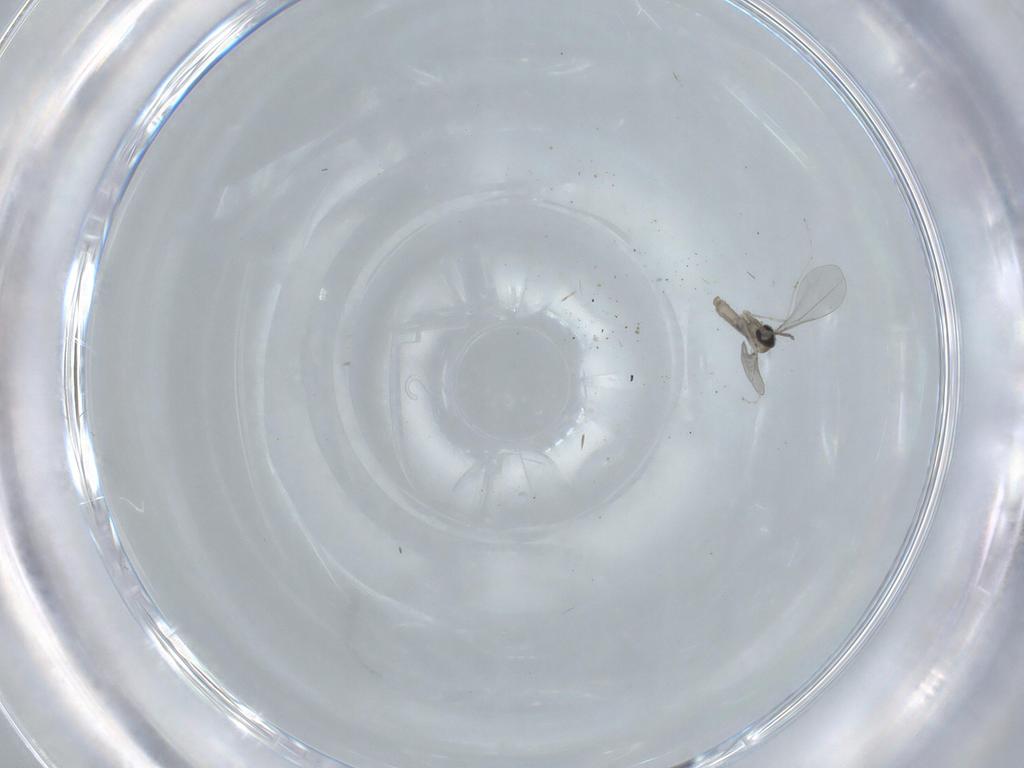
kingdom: Animalia
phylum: Arthropoda
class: Insecta
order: Diptera
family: Cecidomyiidae
